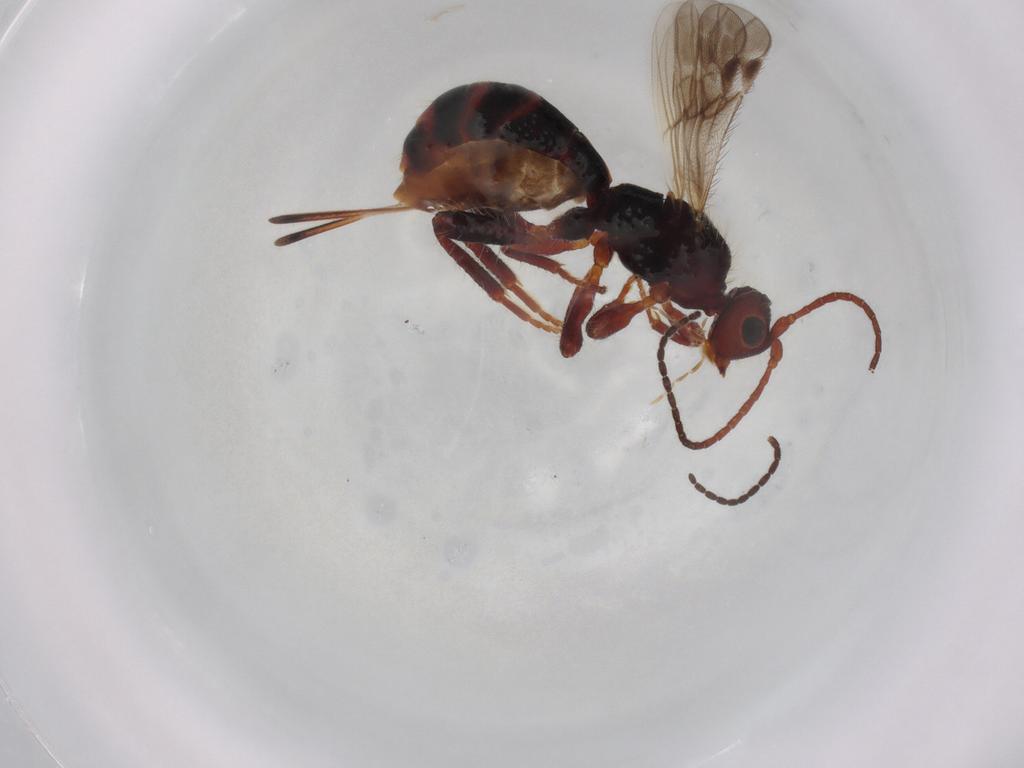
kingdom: Animalia
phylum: Arthropoda
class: Insecta
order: Hymenoptera
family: Braconidae
